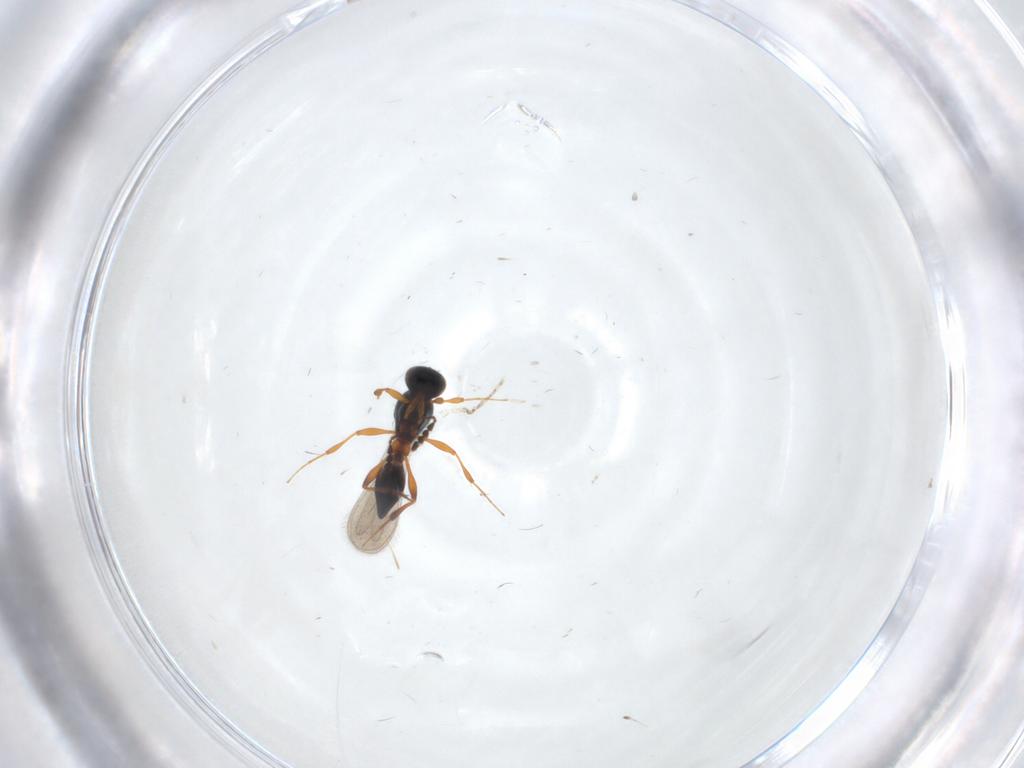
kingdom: Animalia
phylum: Arthropoda
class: Insecta
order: Hymenoptera
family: Platygastridae
